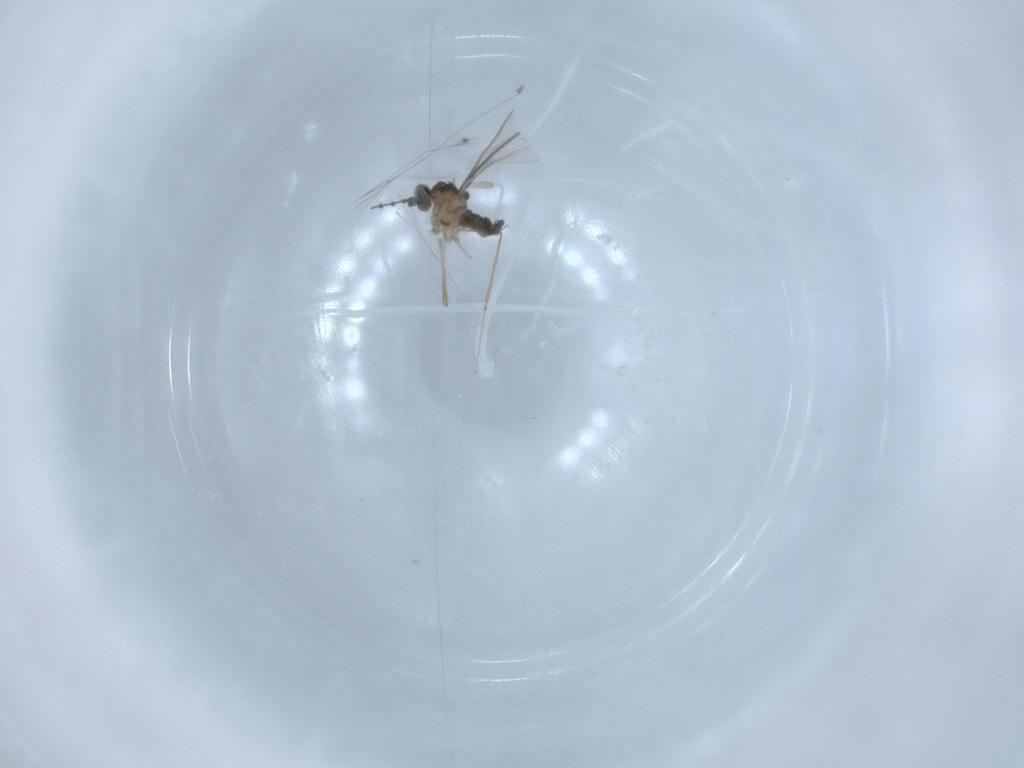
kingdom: Animalia
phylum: Arthropoda
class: Insecta
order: Diptera
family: Cecidomyiidae
